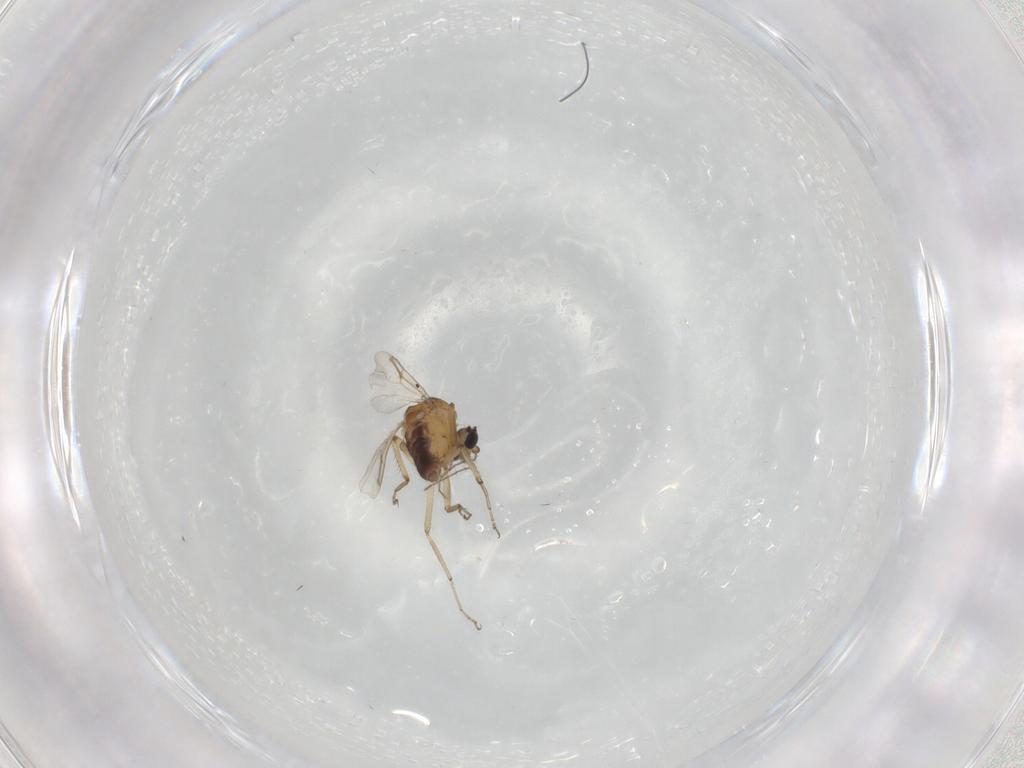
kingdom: Animalia
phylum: Arthropoda
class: Insecta
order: Diptera
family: Ceratopogonidae
